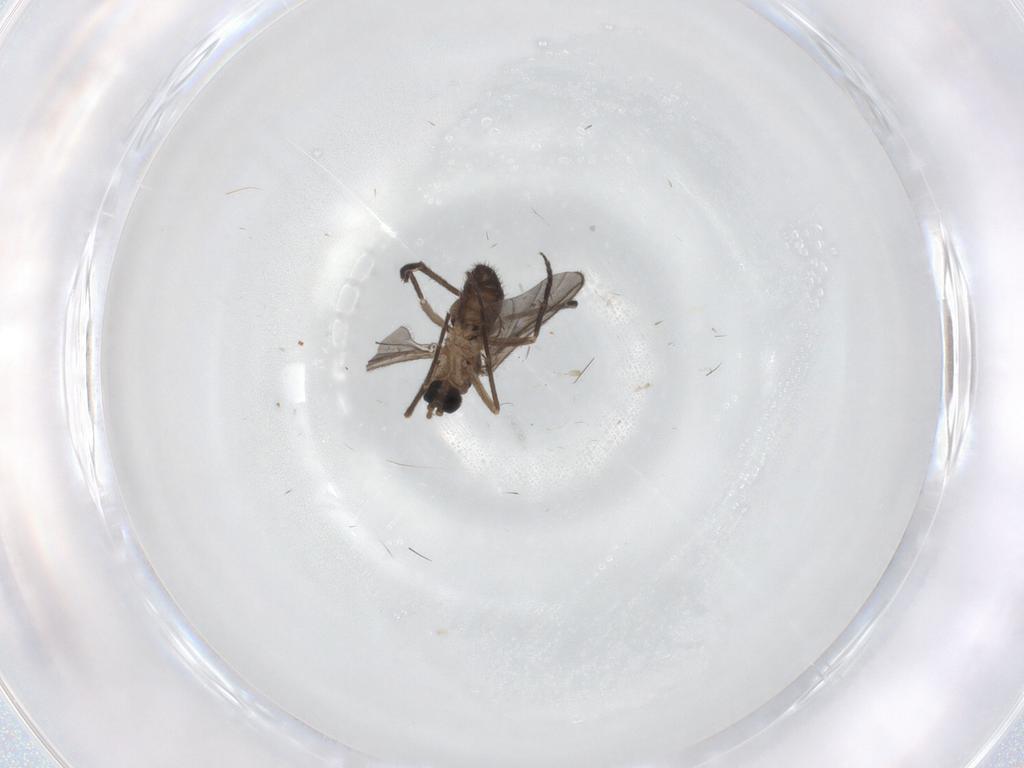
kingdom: Animalia
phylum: Arthropoda
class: Insecta
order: Diptera
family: Sciaridae
